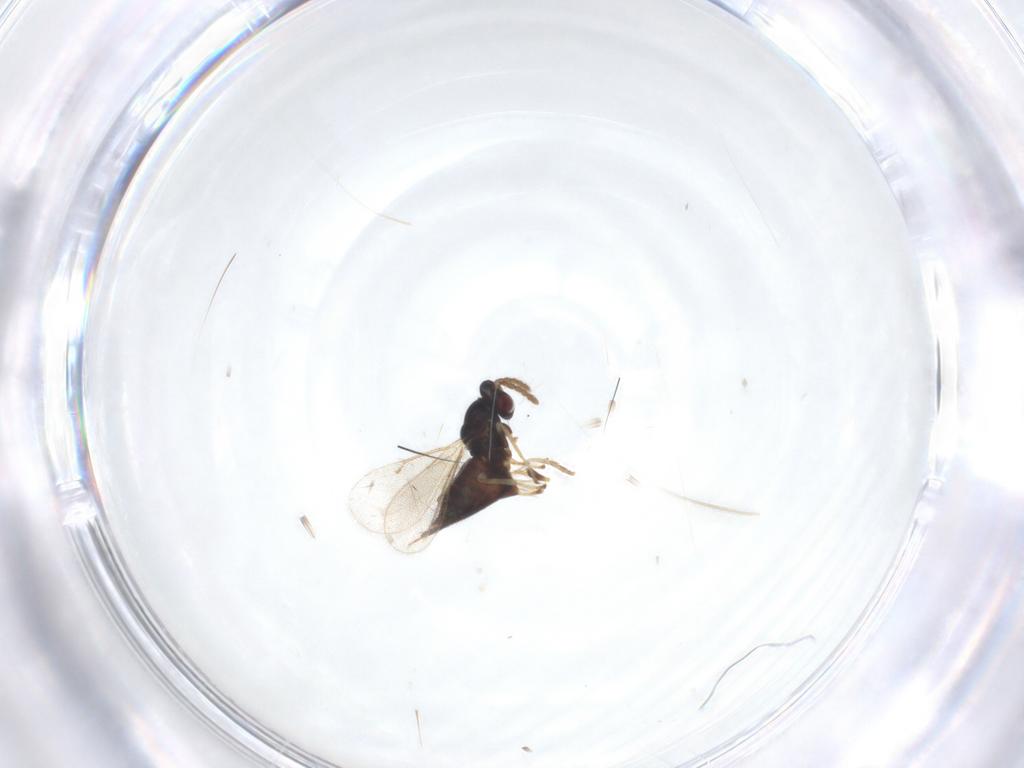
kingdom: Animalia
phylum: Arthropoda
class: Insecta
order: Hymenoptera
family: Eulophidae
